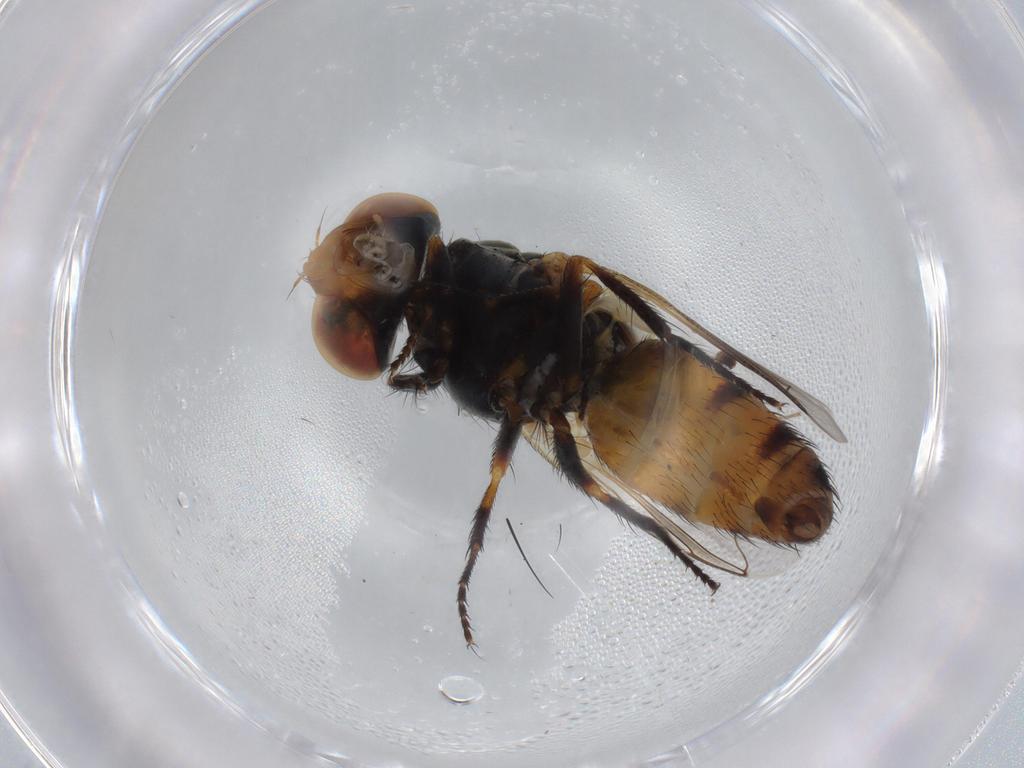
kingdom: Animalia
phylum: Arthropoda
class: Insecta
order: Diptera
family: Sarcophagidae
